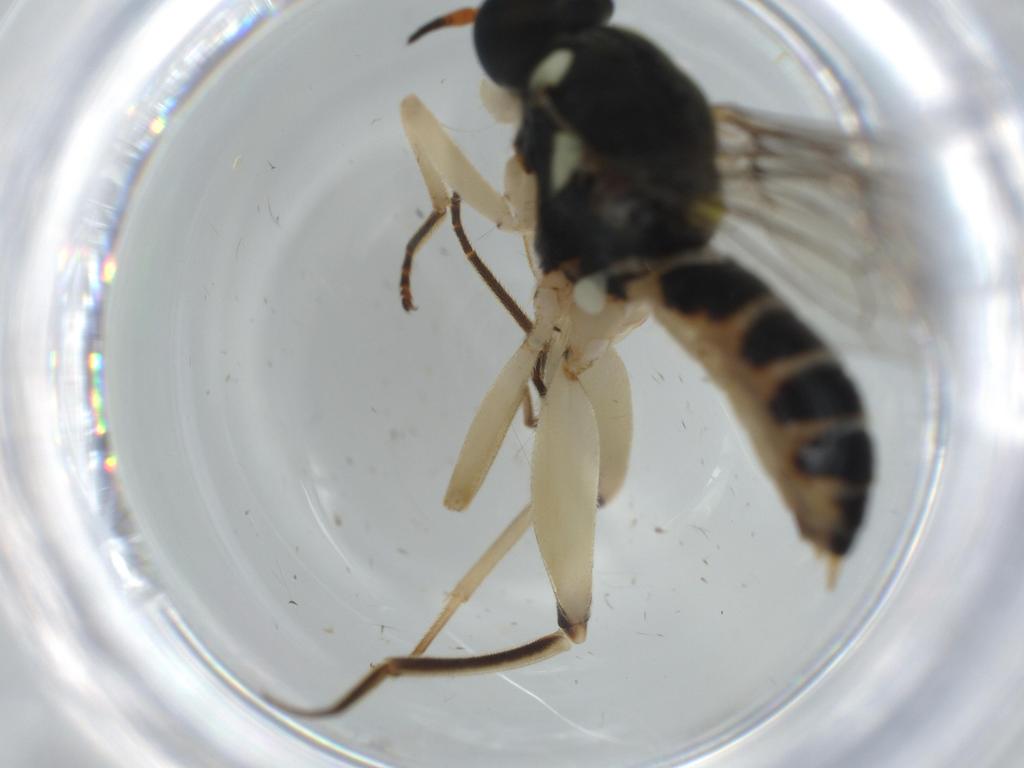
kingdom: Animalia
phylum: Arthropoda
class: Insecta
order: Diptera
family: Xylomyidae
